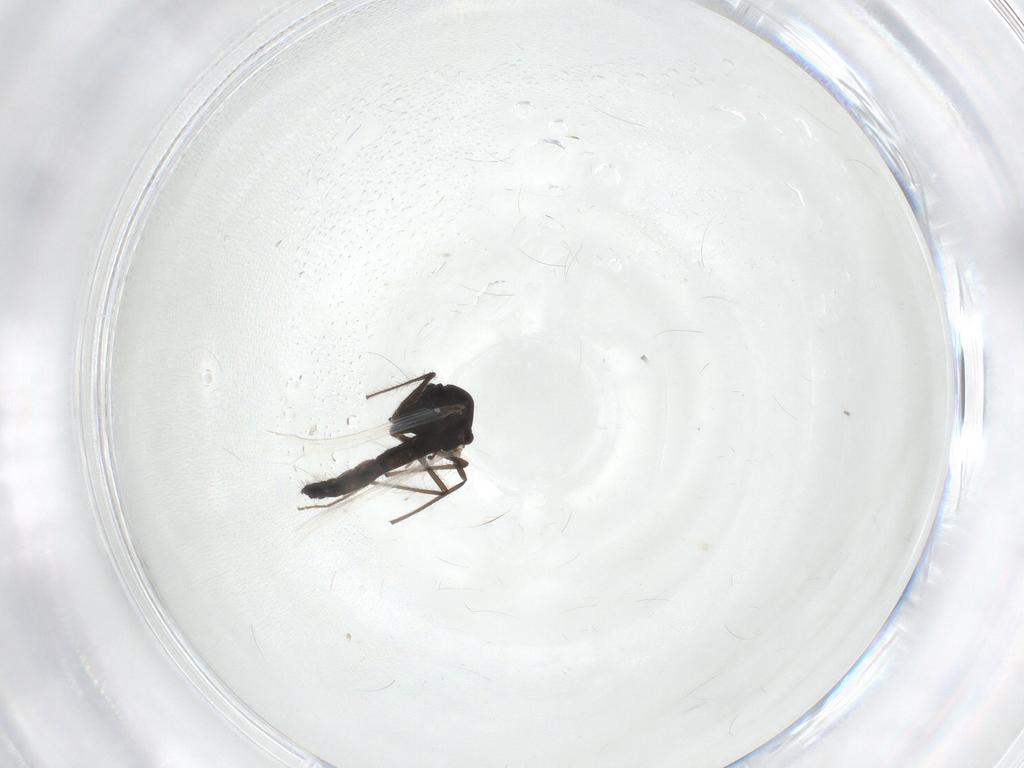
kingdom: Animalia
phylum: Arthropoda
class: Insecta
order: Diptera
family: Chironomidae
